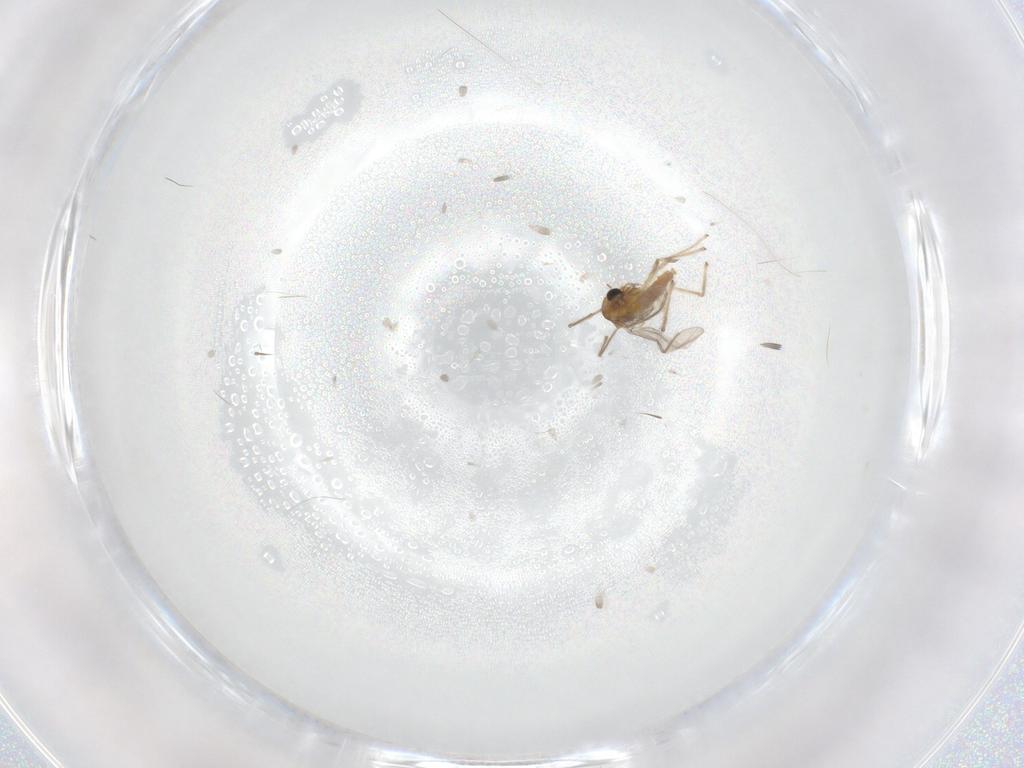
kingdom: Animalia
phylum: Arthropoda
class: Insecta
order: Diptera
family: Chironomidae
